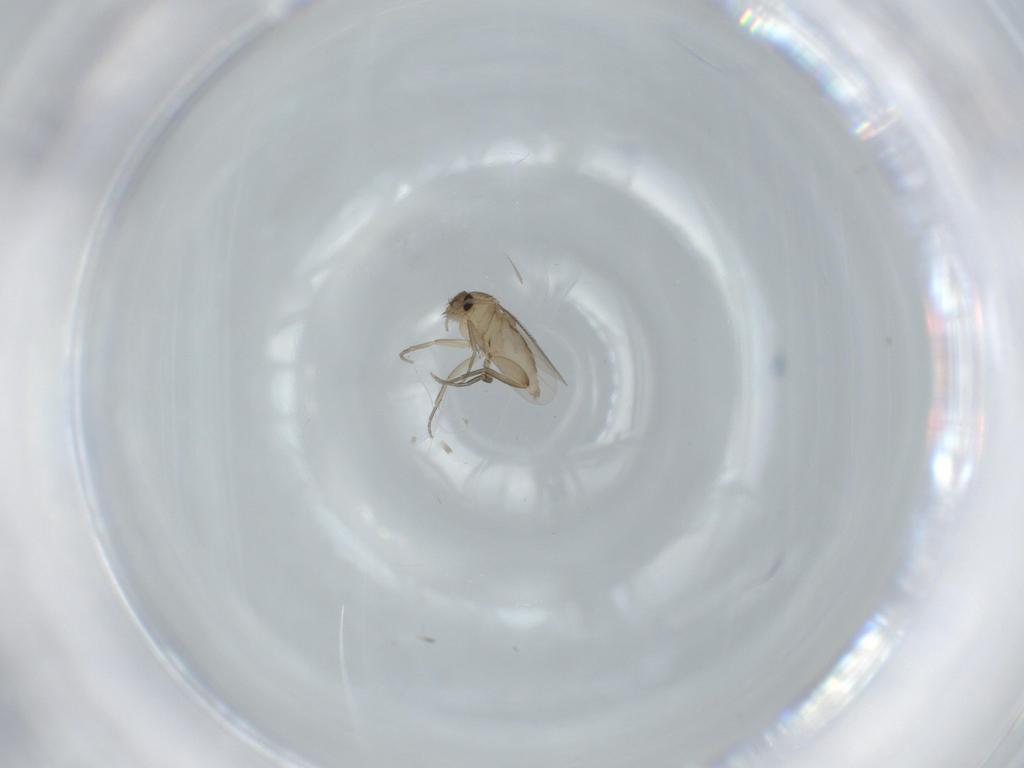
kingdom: Animalia
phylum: Arthropoda
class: Insecta
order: Diptera
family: Phoridae
